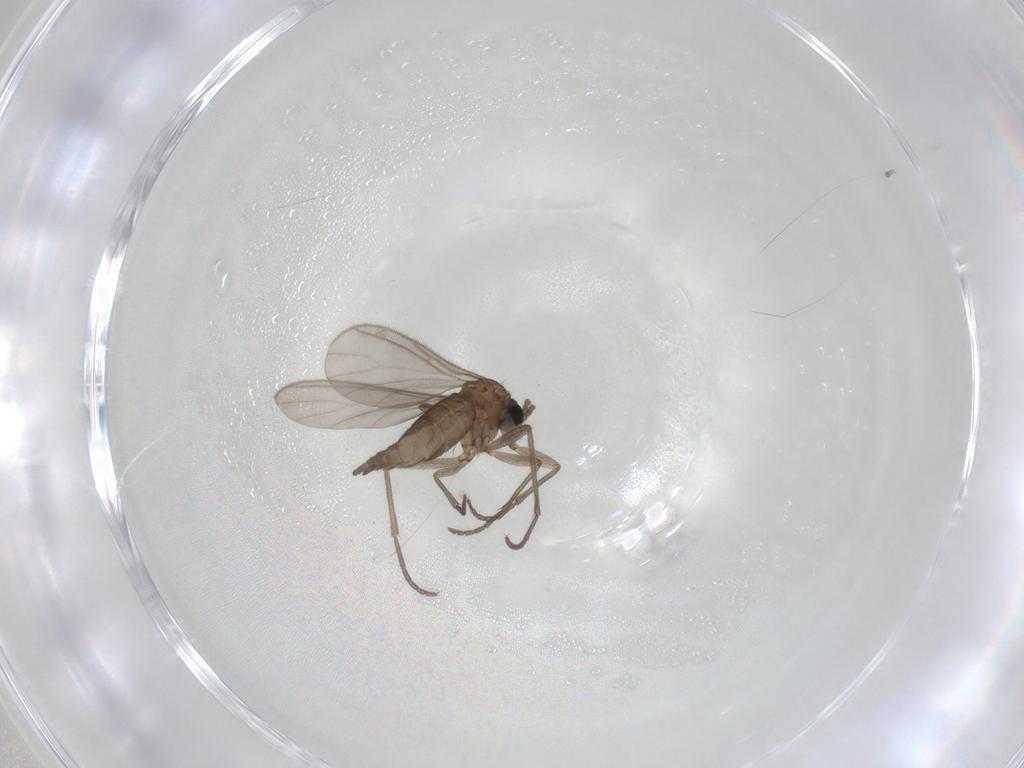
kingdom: Animalia
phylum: Arthropoda
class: Insecta
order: Diptera
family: Sciaridae
